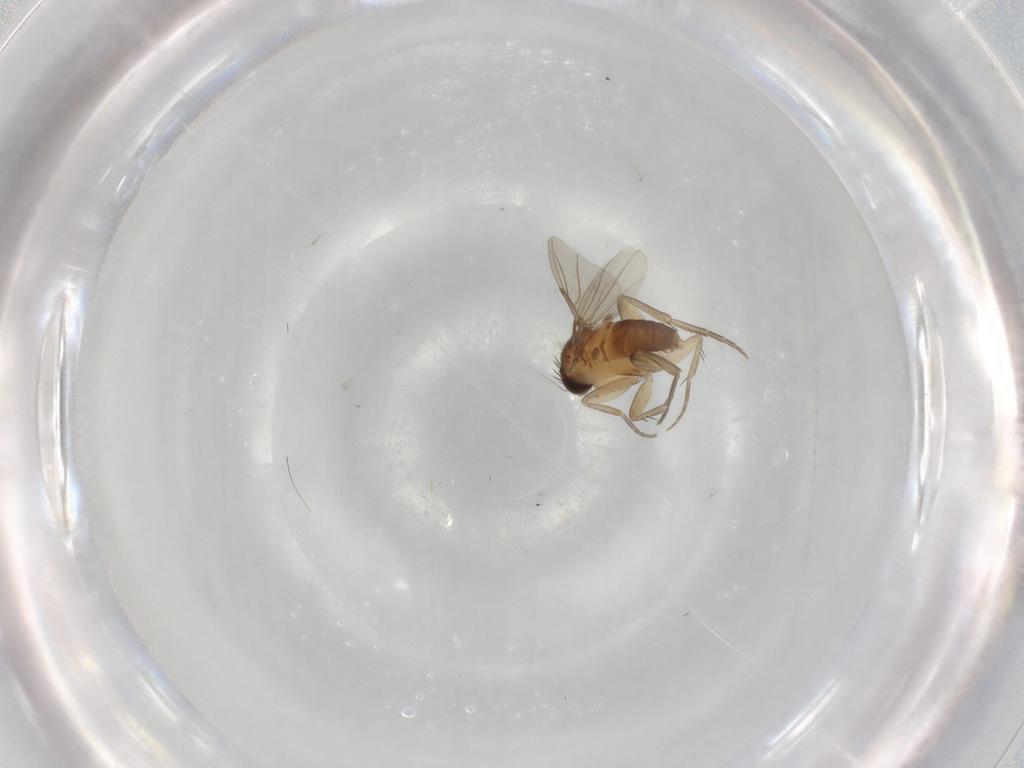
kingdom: Animalia
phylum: Arthropoda
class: Insecta
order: Diptera
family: Phoridae
